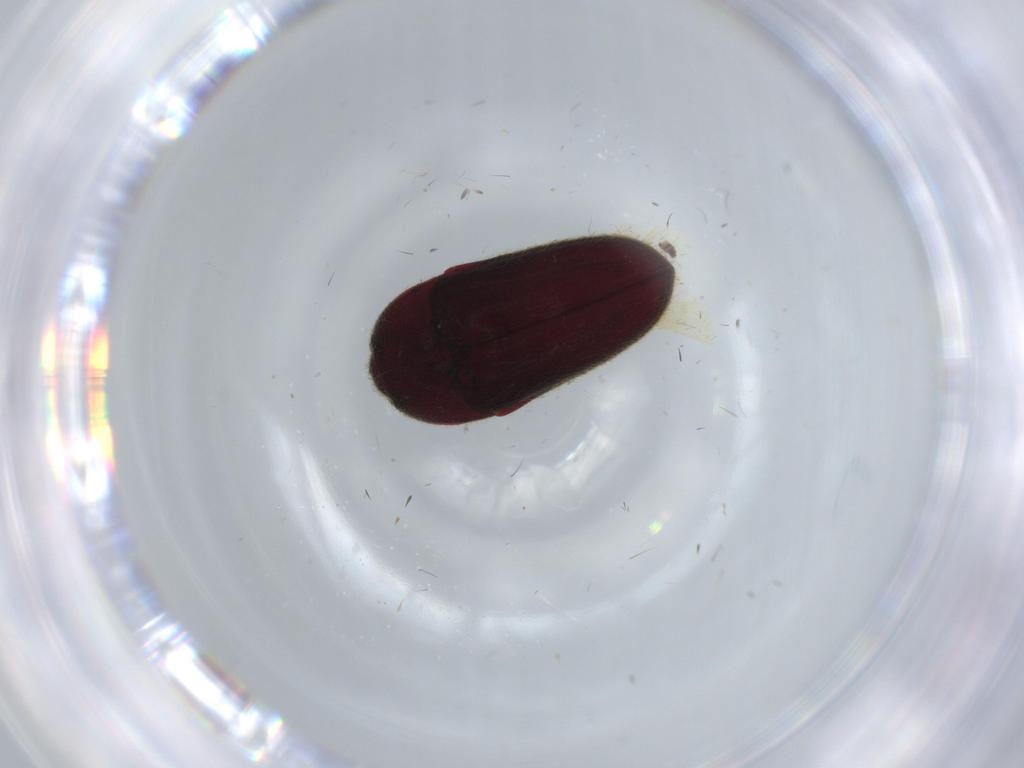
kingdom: Animalia
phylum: Arthropoda
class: Insecta
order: Coleoptera
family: Throscidae
